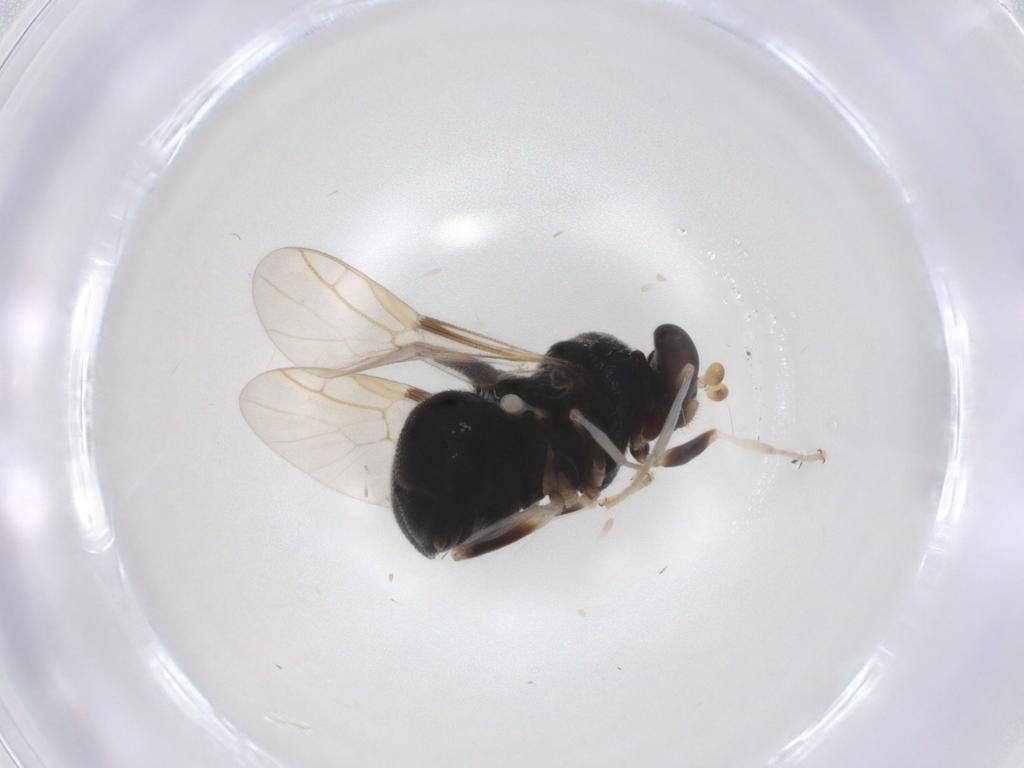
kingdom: Animalia
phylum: Arthropoda
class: Insecta
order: Diptera
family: Stratiomyidae
